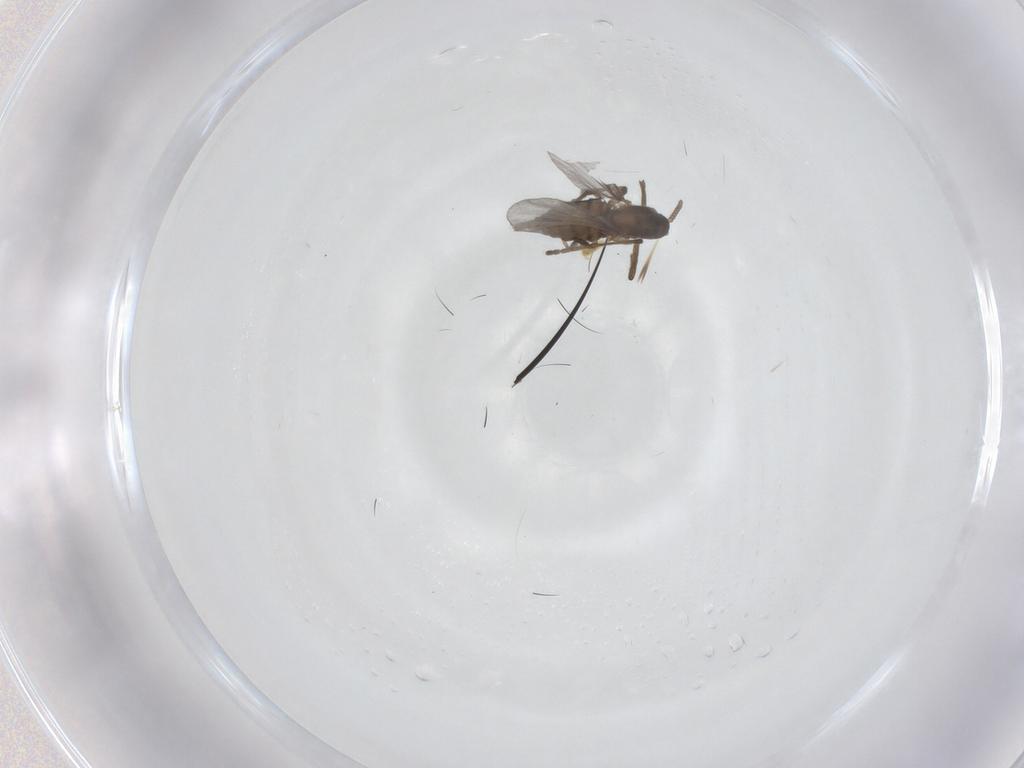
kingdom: Animalia
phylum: Arthropoda
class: Insecta
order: Diptera
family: Cecidomyiidae
